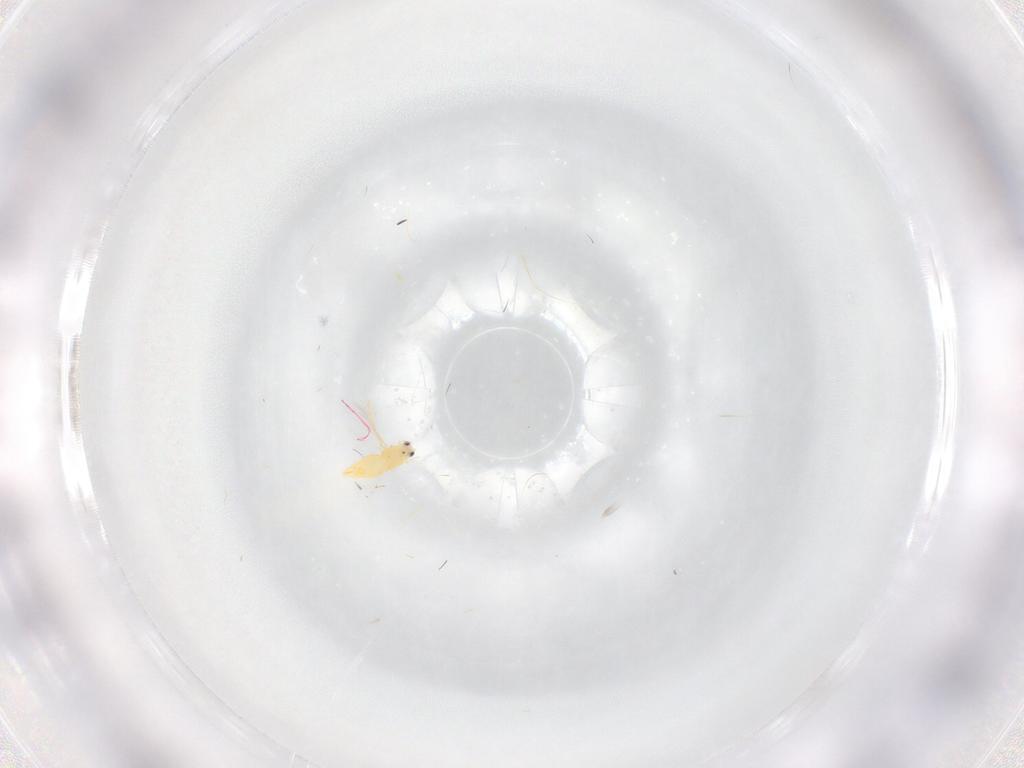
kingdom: Animalia
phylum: Arthropoda
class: Insecta
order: Thysanoptera
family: Thripidae
